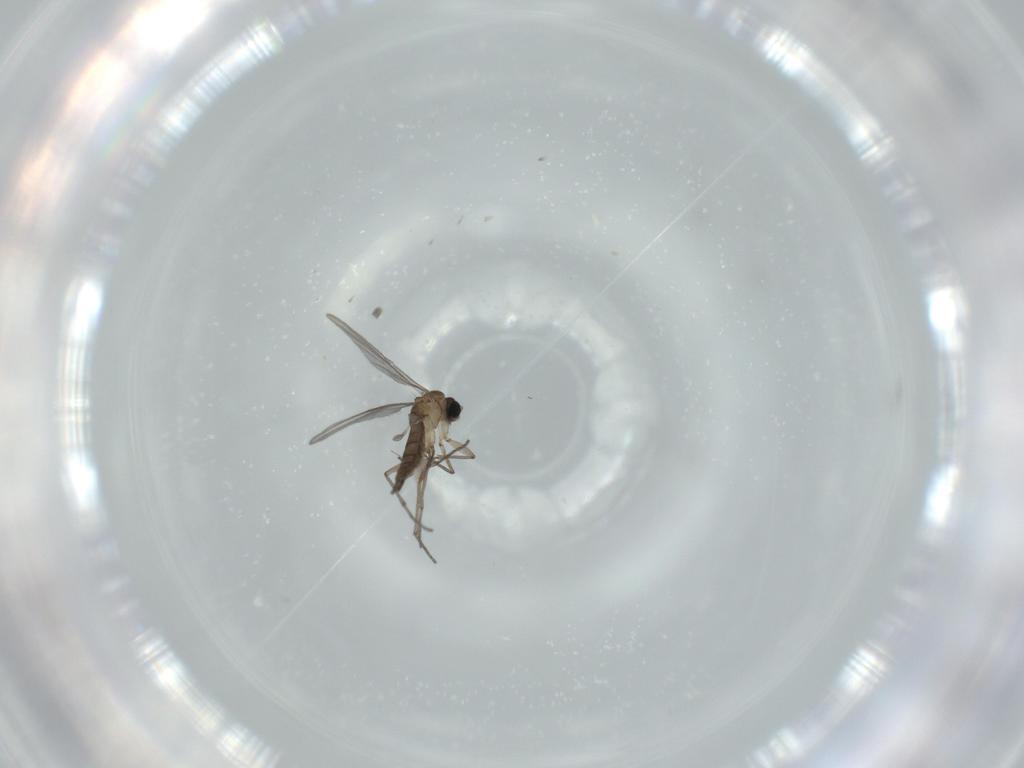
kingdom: Animalia
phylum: Arthropoda
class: Insecta
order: Diptera
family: Sciaridae
